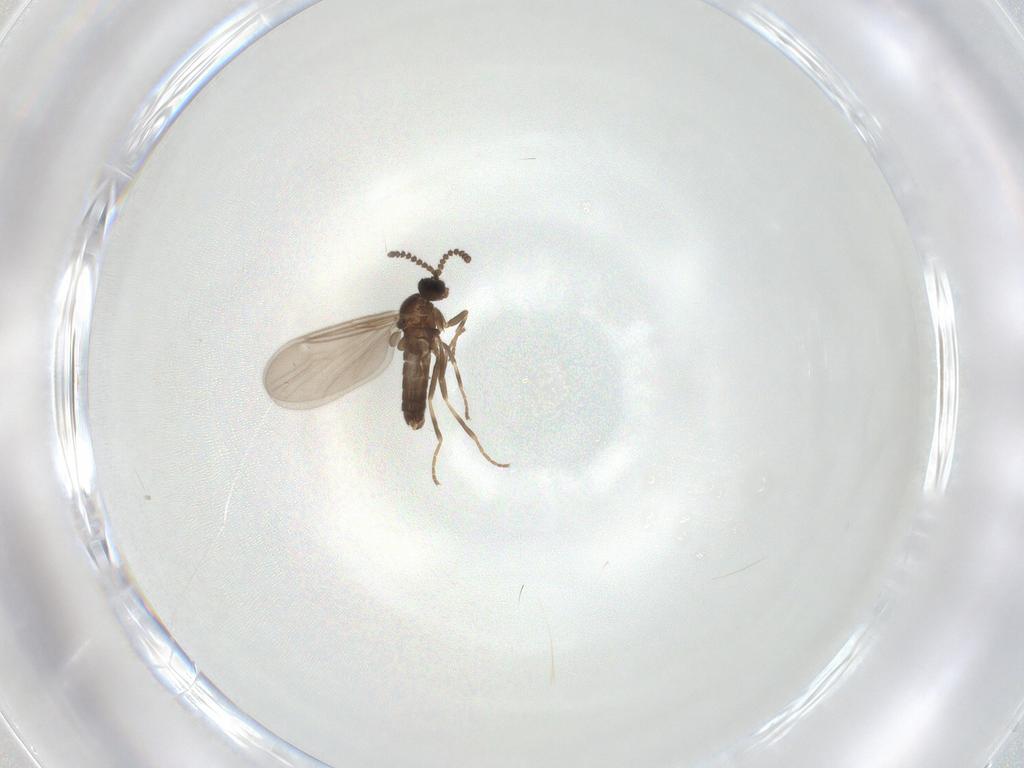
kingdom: Animalia
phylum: Arthropoda
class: Insecta
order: Diptera
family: Scatopsidae
